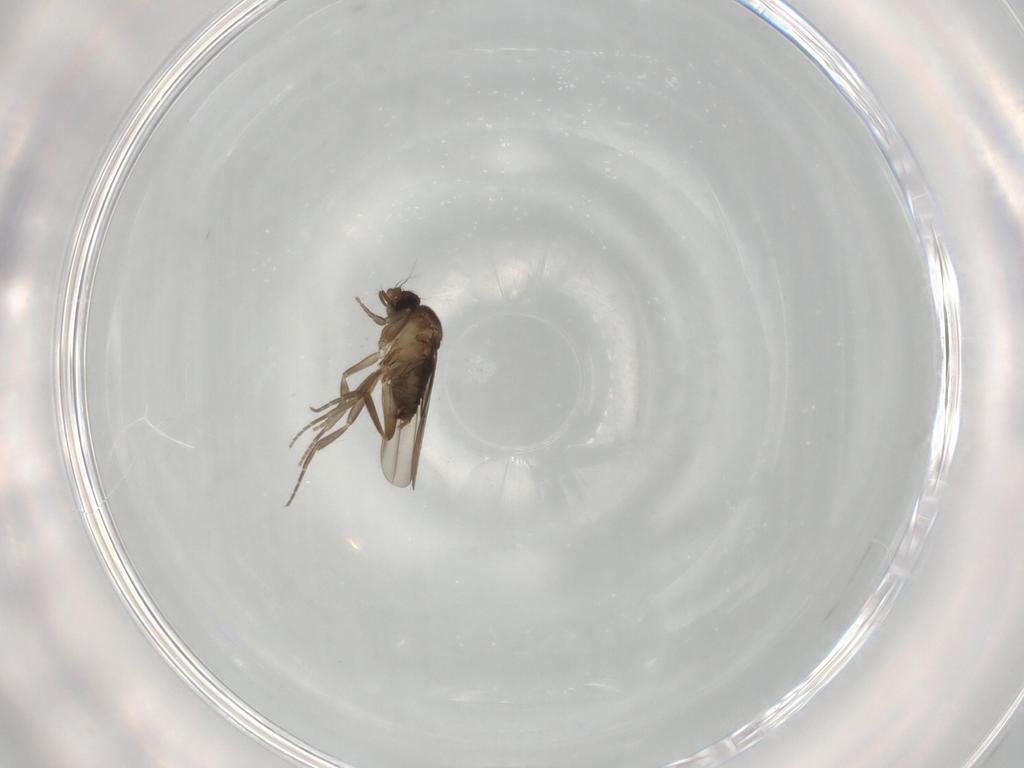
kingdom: Animalia
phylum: Arthropoda
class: Insecta
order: Diptera
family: Psychodidae
